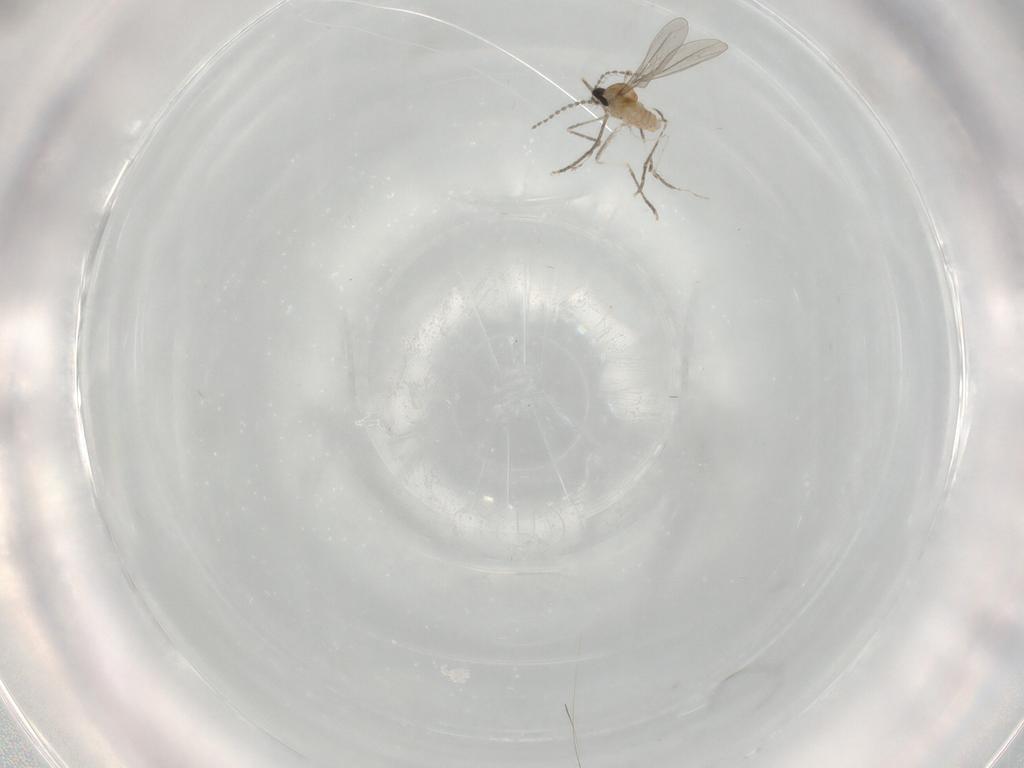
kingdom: Animalia
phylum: Arthropoda
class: Insecta
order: Diptera
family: Cecidomyiidae
